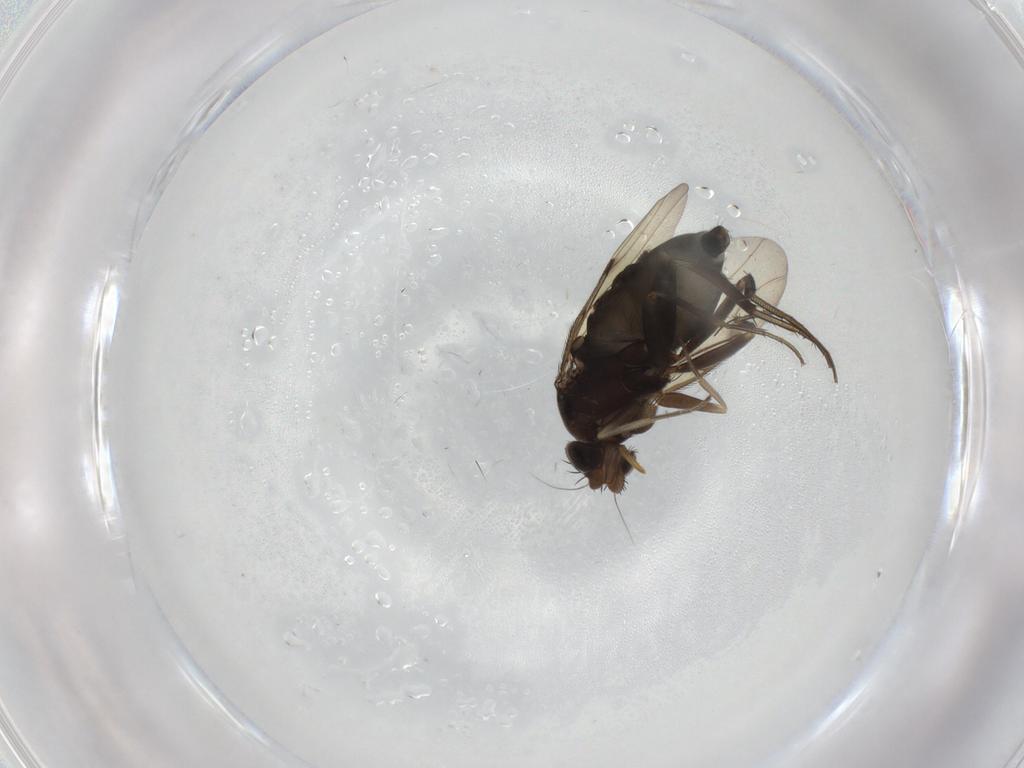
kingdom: Animalia
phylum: Arthropoda
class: Insecta
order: Diptera
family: Phoridae
